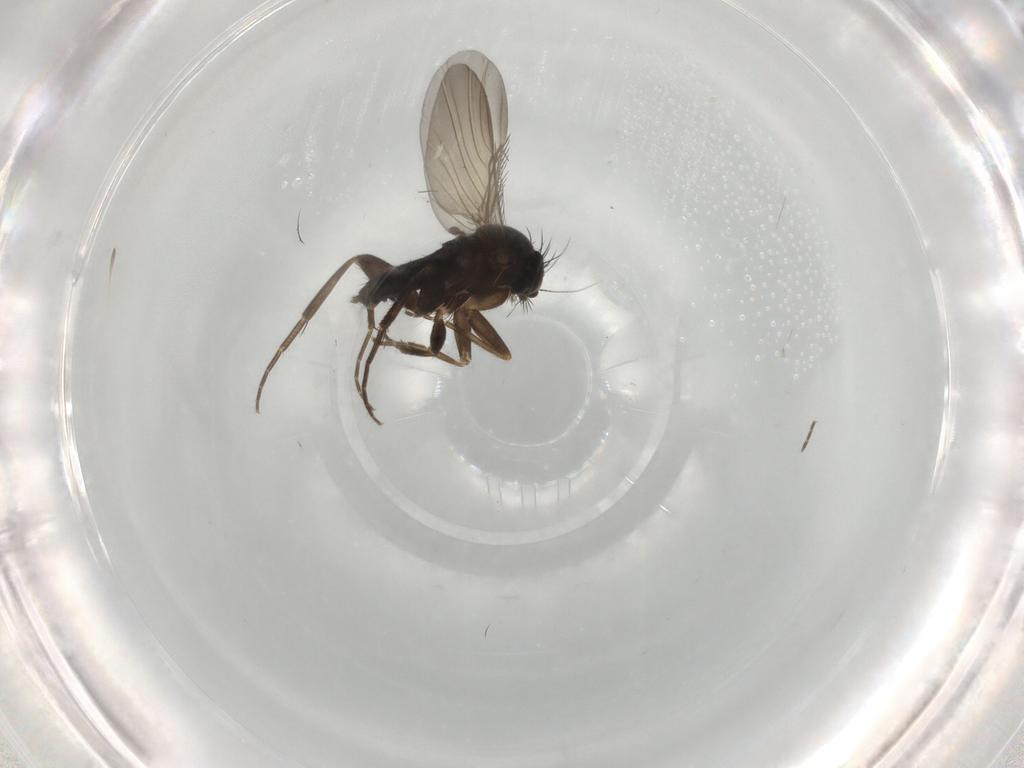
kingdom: Animalia
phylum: Arthropoda
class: Insecta
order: Diptera
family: Phoridae
